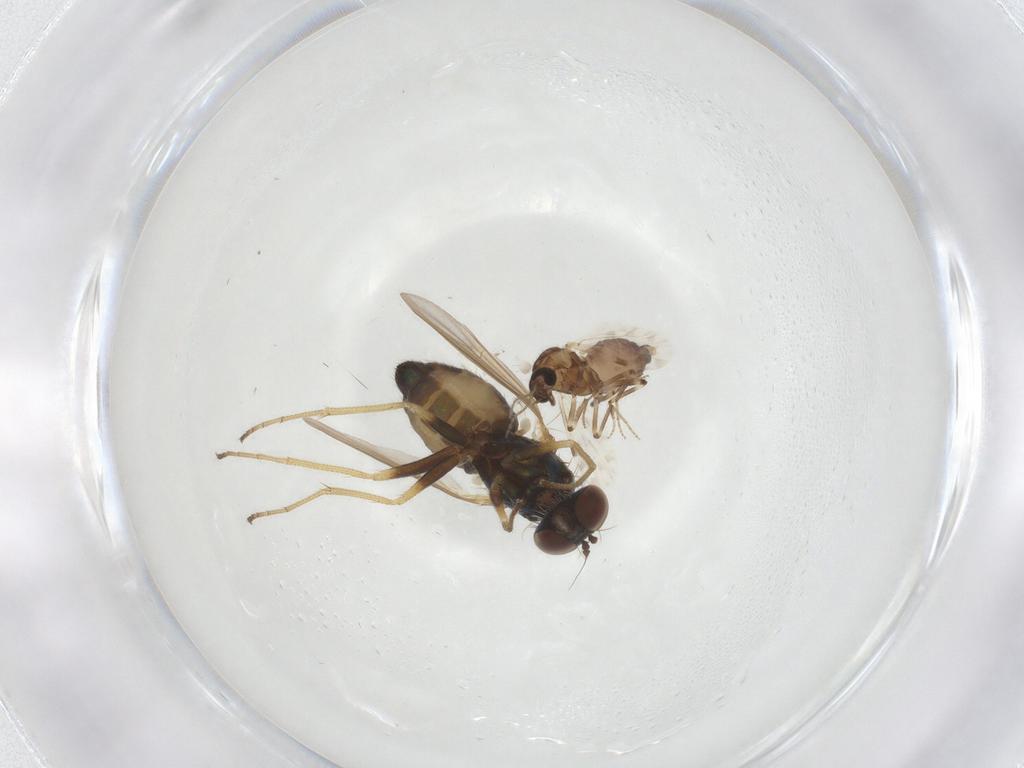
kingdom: Animalia
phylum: Arthropoda
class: Insecta
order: Diptera
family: Dolichopodidae
